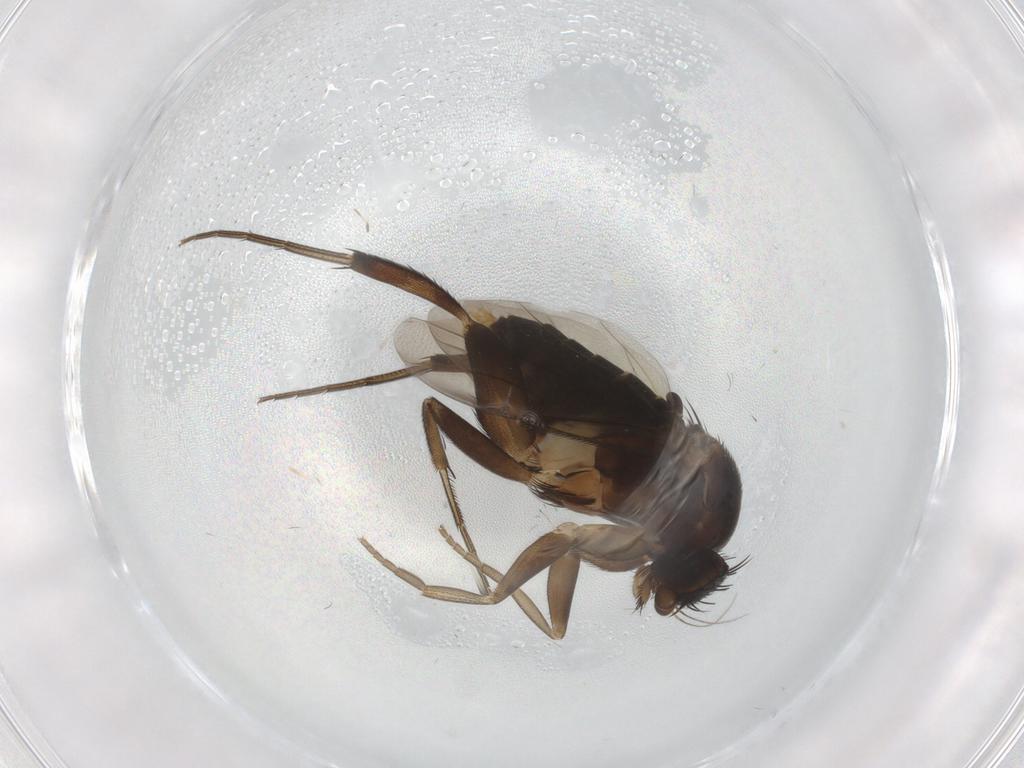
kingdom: Animalia
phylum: Arthropoda
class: Insecta
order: Diptera
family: Phoridae
